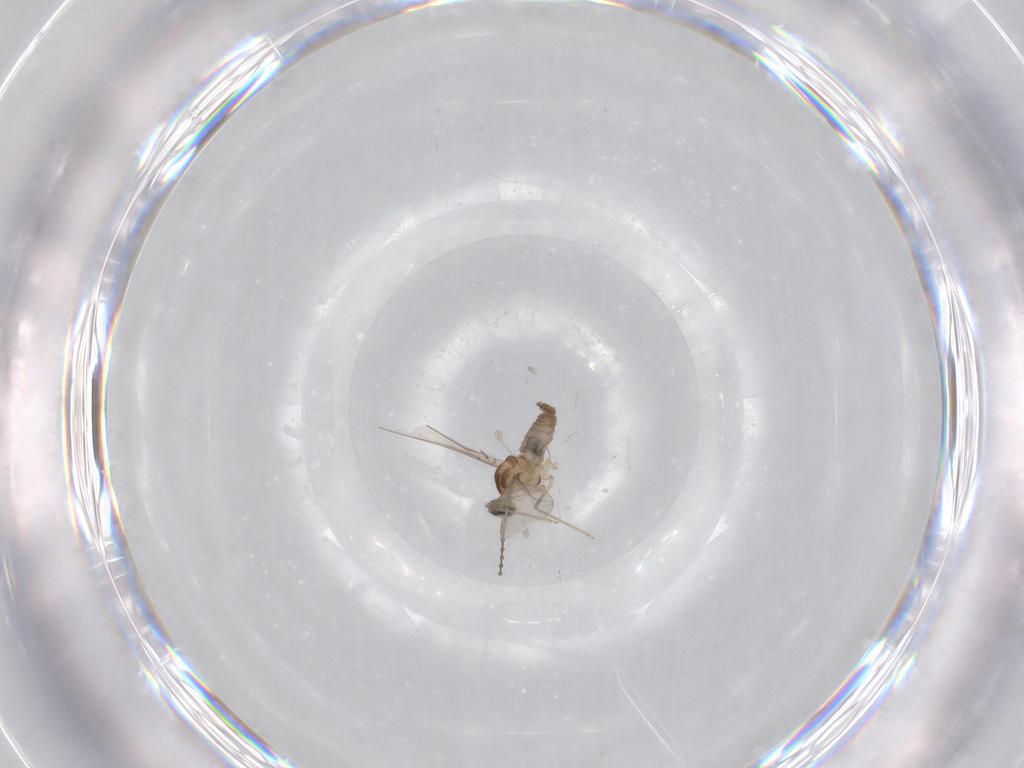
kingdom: Animalia
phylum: Arthropoda
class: Insecta
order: Diptera
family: Cecidomyiidae
